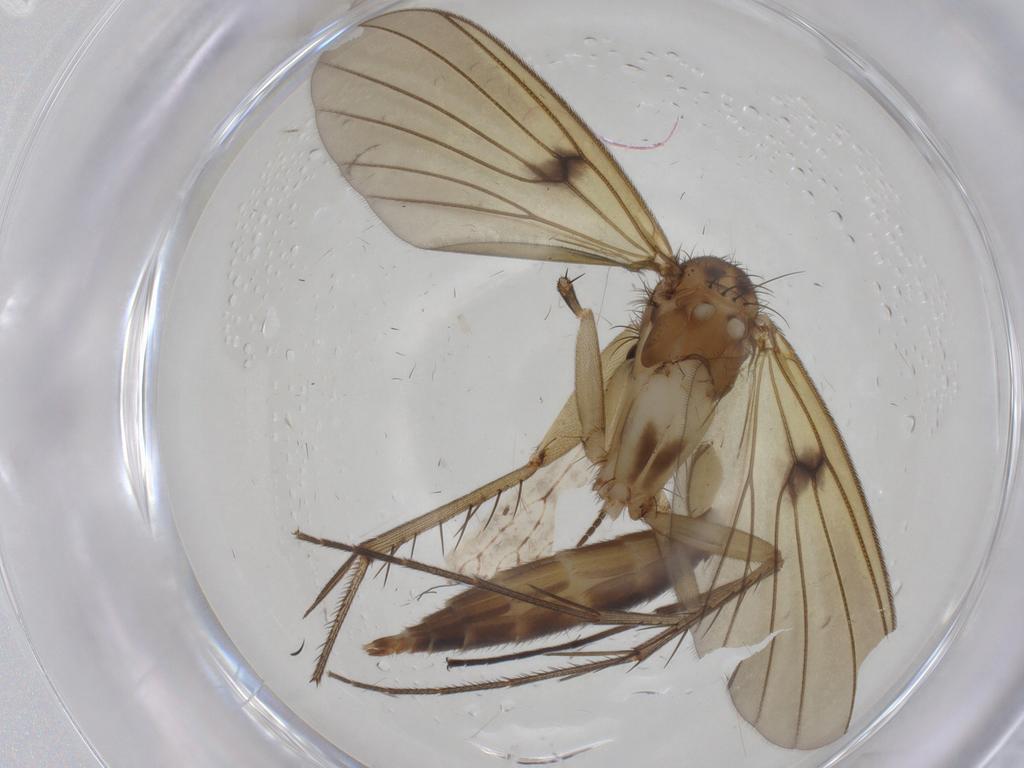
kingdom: Animalia
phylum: Arthropoda
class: Insecta
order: Diptera
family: Chironomidae
